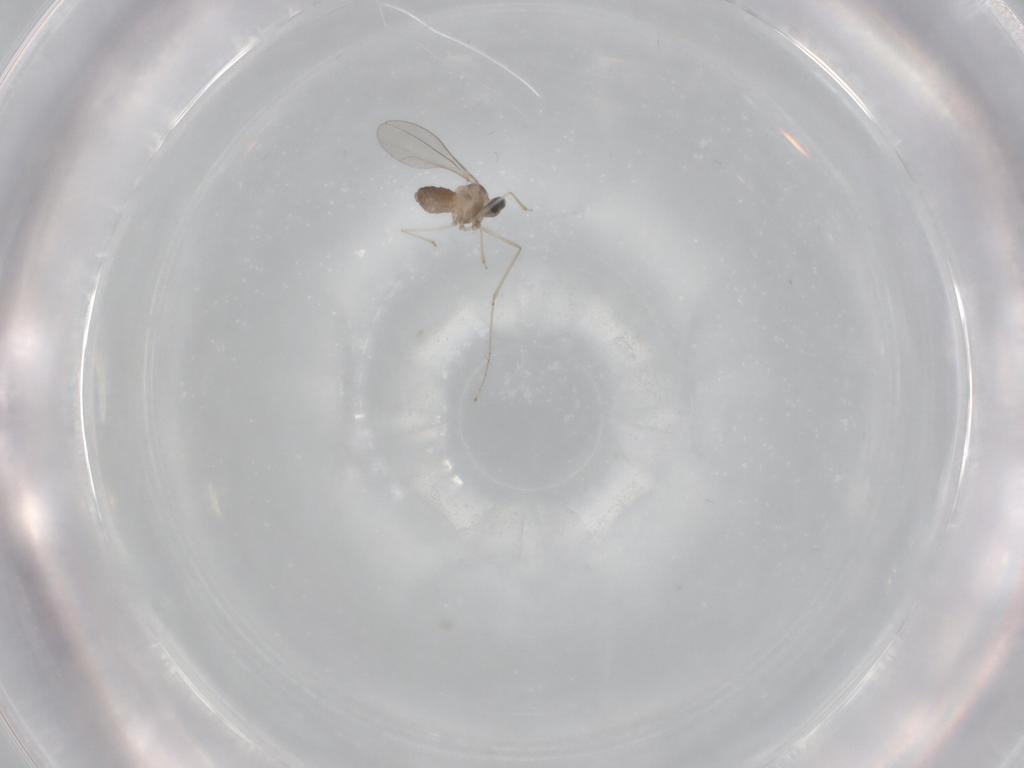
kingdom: Animalia
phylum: Arthropoda
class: Insecta
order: Diptera
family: Cecidomyiidae
